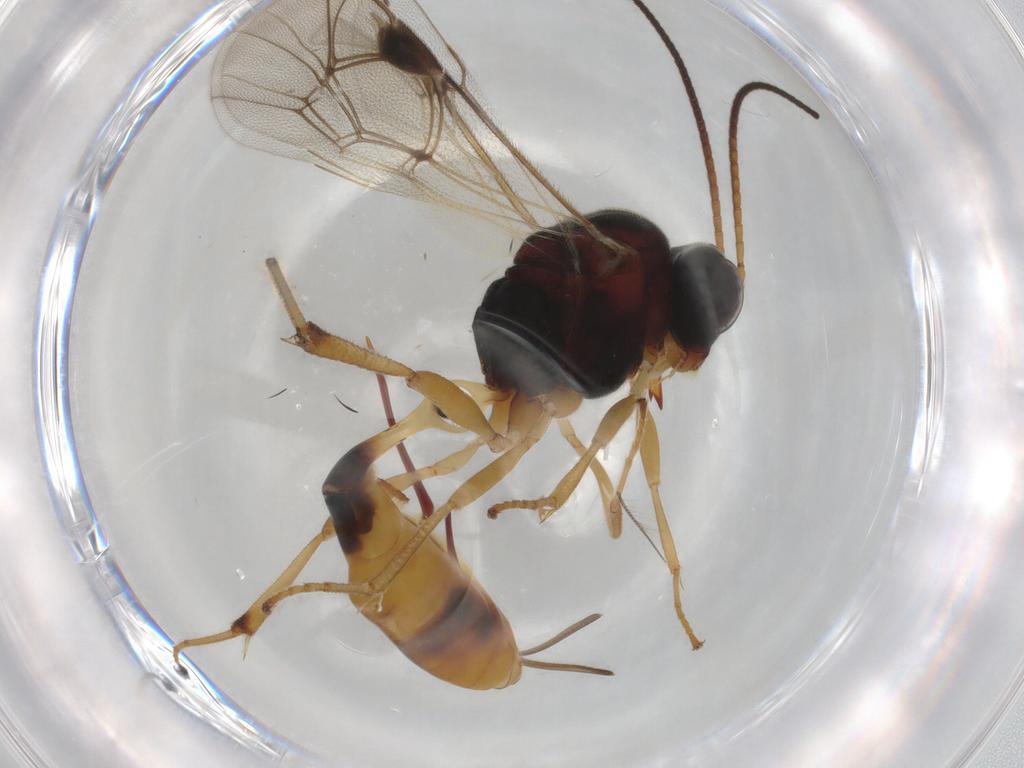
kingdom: Animalia
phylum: Arthropoda
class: Insecta
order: Hymenoptera
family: Ichneumonidae
